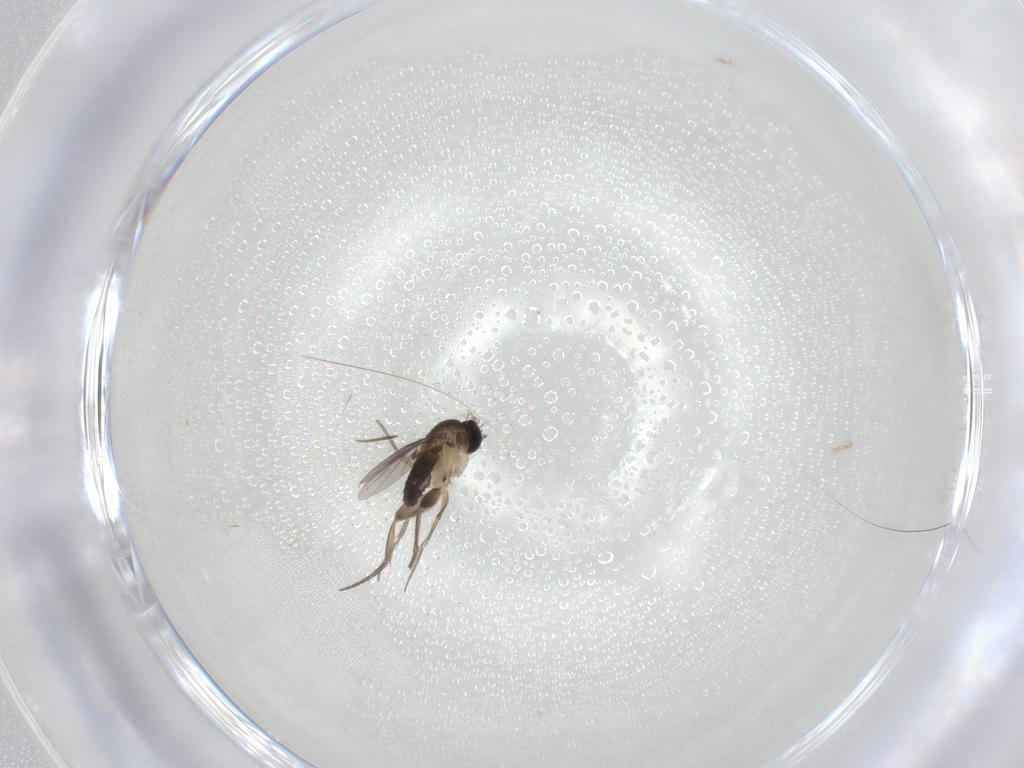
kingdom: Animalia
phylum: Arthropoda
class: Insecta
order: Diptera
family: Phoridae
